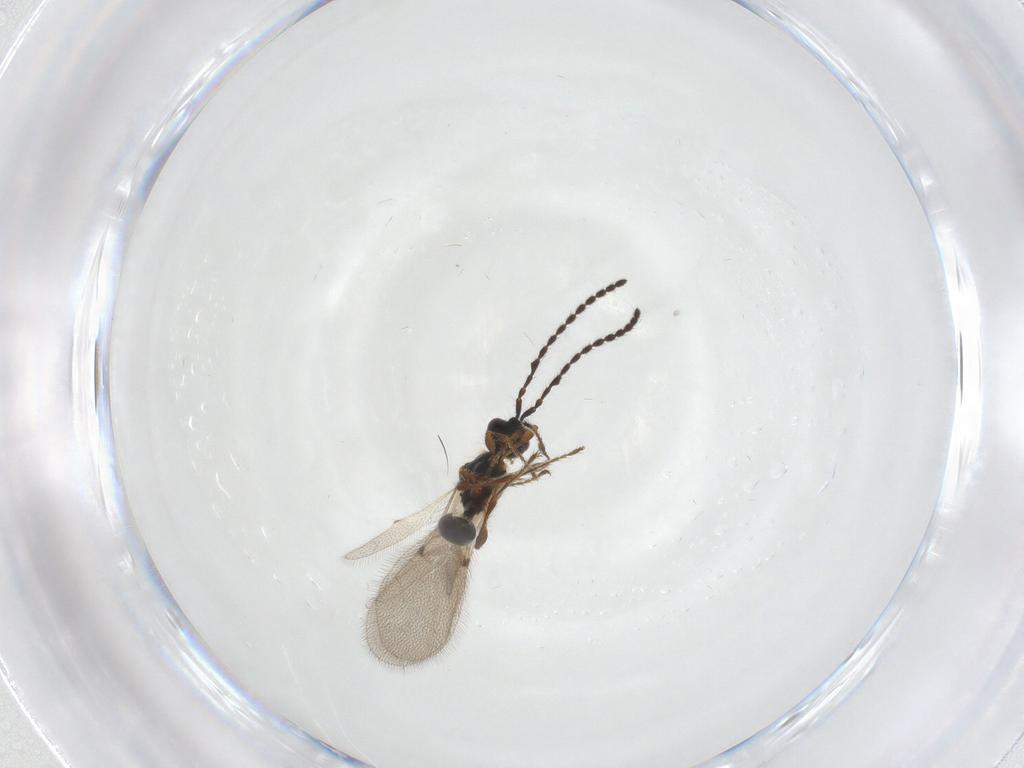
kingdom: Animalia
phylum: Arthropoda
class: Insecta
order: Hymenoptera
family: Diapriidae
